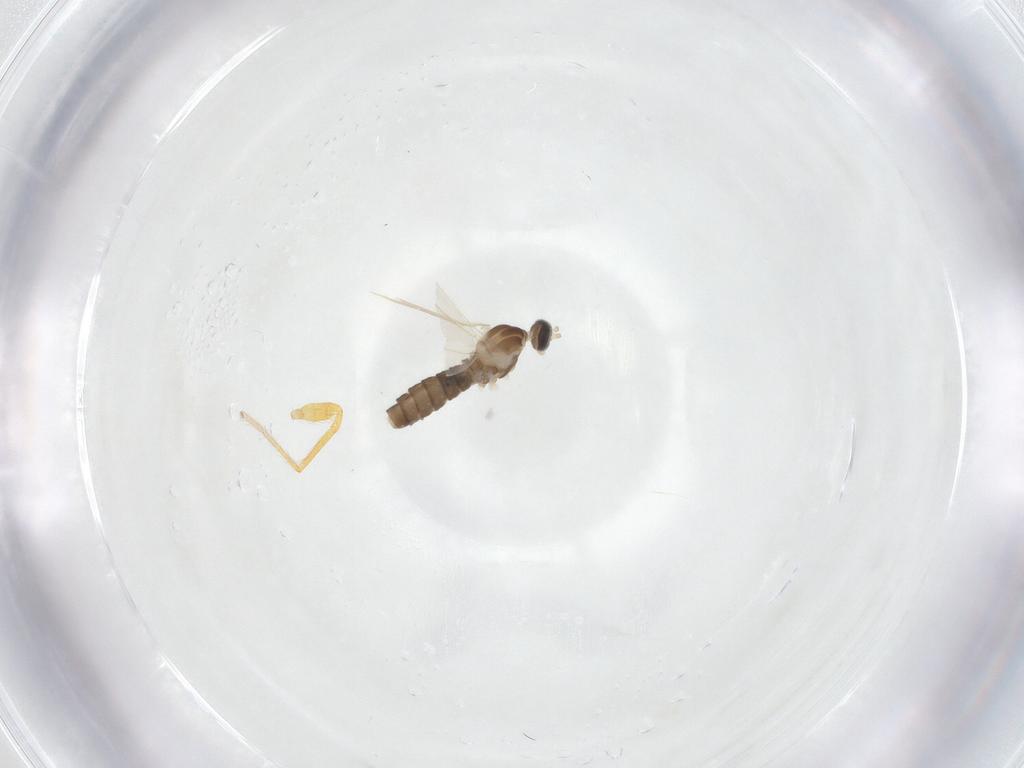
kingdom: Animalia
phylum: Arthropoda
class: Insecta
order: Diptera
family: Cecidomyiidae
